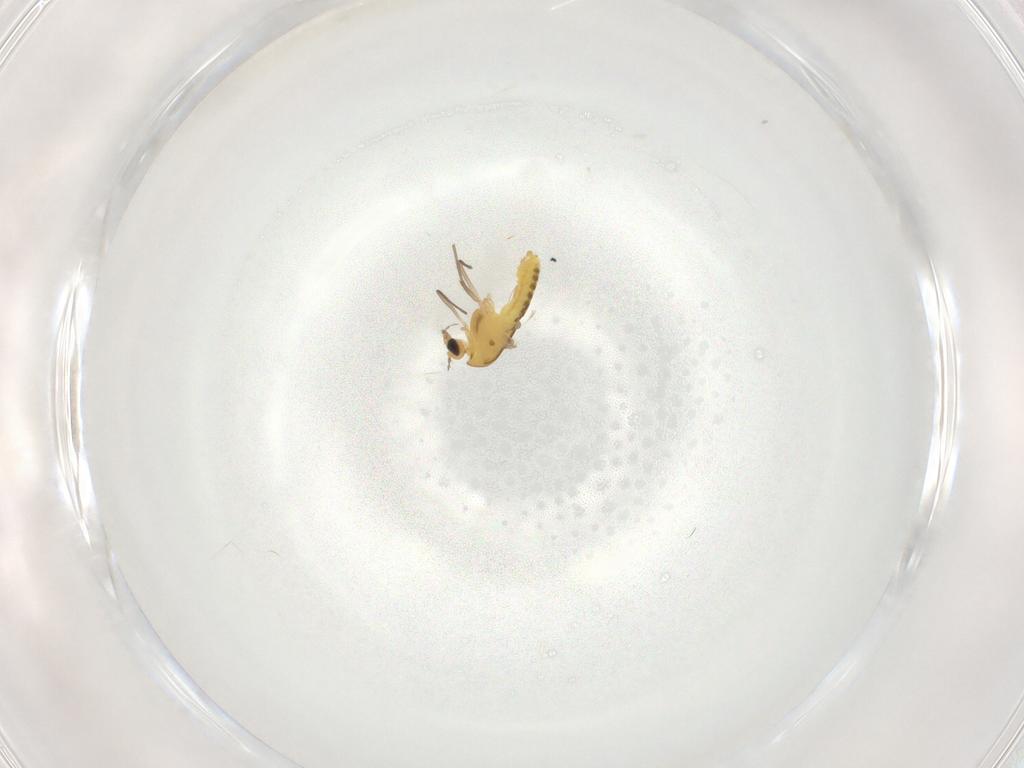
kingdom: Animalia
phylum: Arthropoda
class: Insecta
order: Diptera
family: Chironomidae
